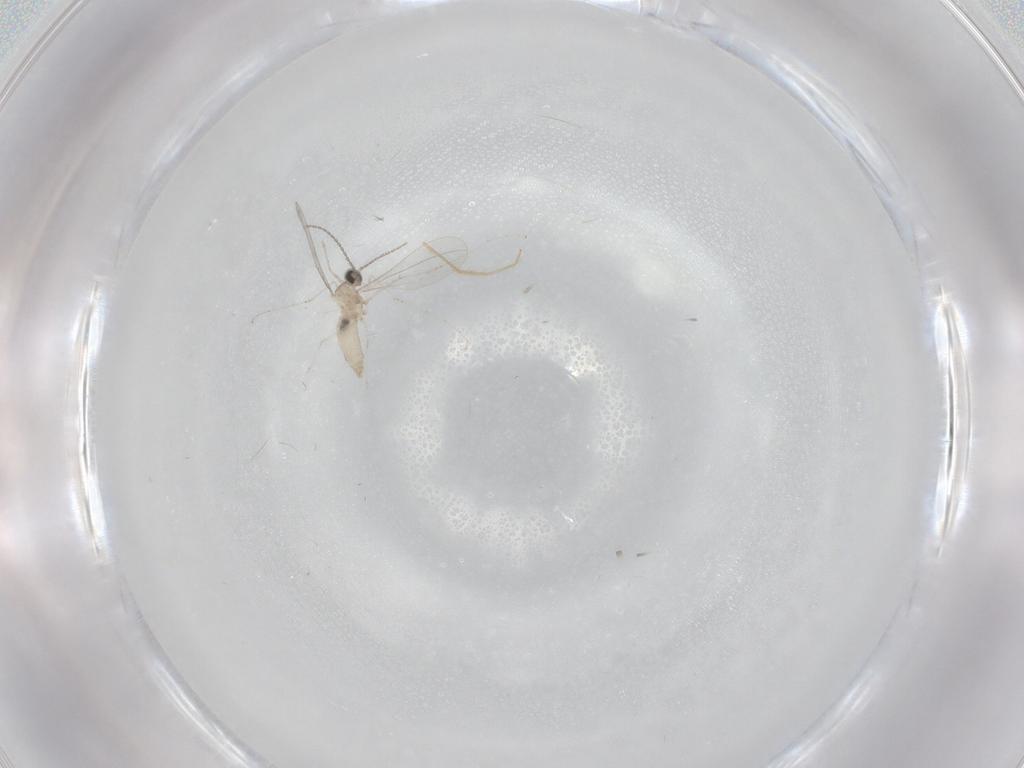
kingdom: Animalia
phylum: Arthropoda
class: Insecta
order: Diptera
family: Cecidomyiidae
